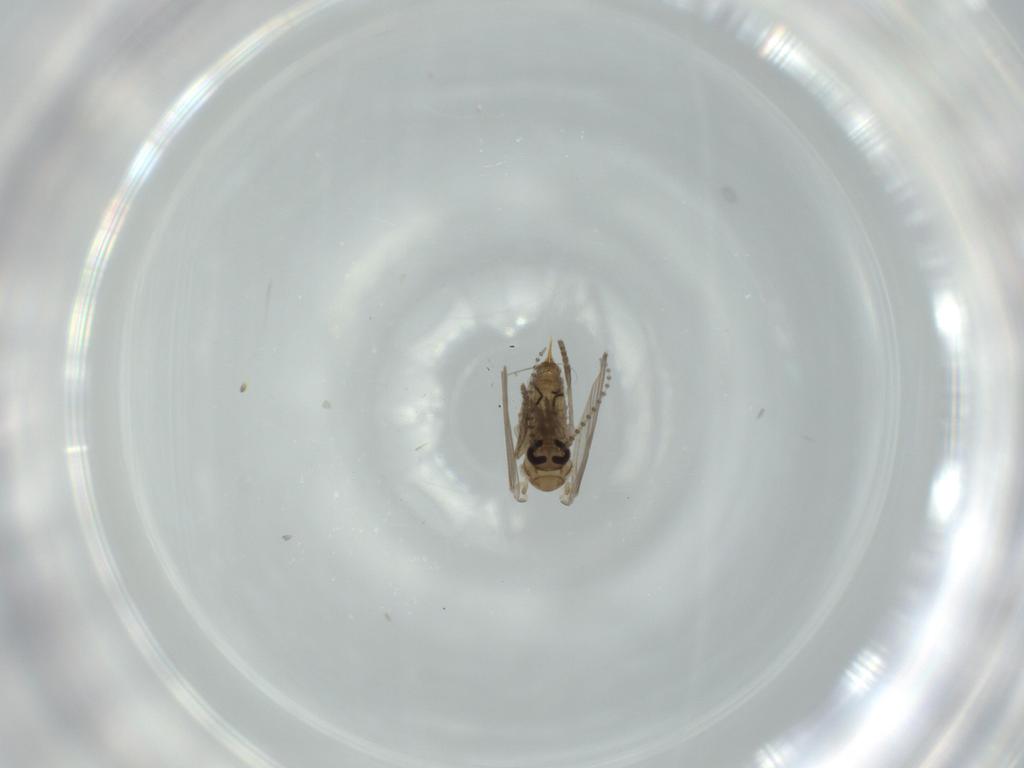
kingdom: Animalia
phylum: Arthropoda
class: Insecta
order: Diptera
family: Psychodidae
